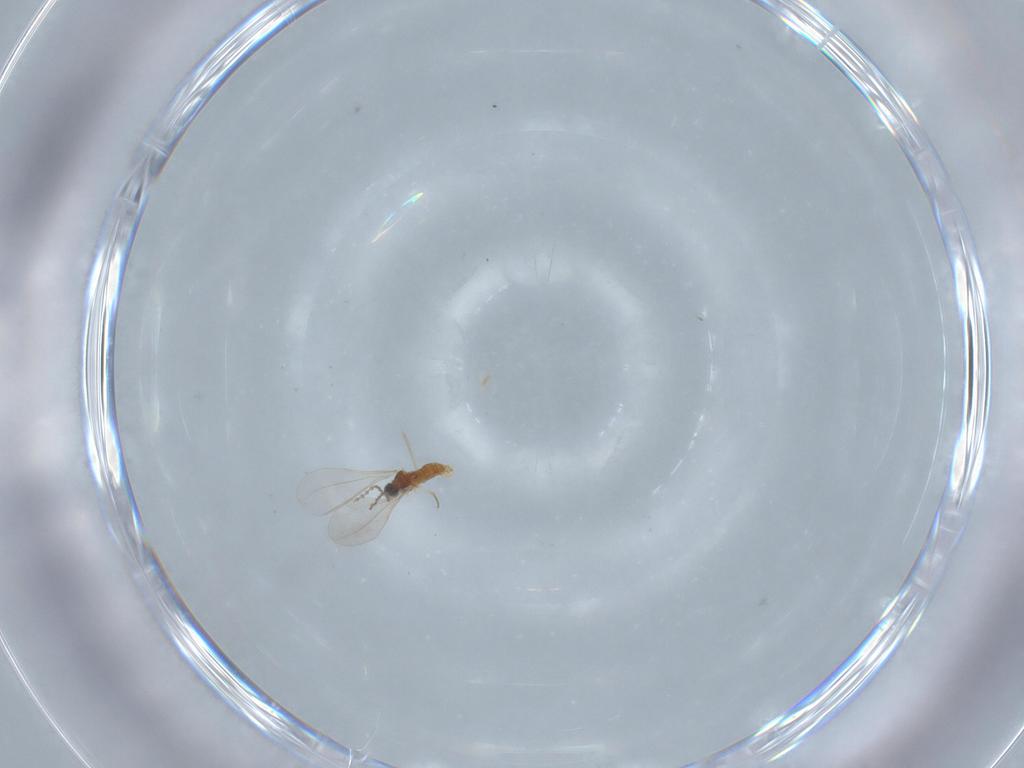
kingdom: Animalia
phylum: Arthropoda
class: Insecta
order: Diptera
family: Cecidomyiidae
